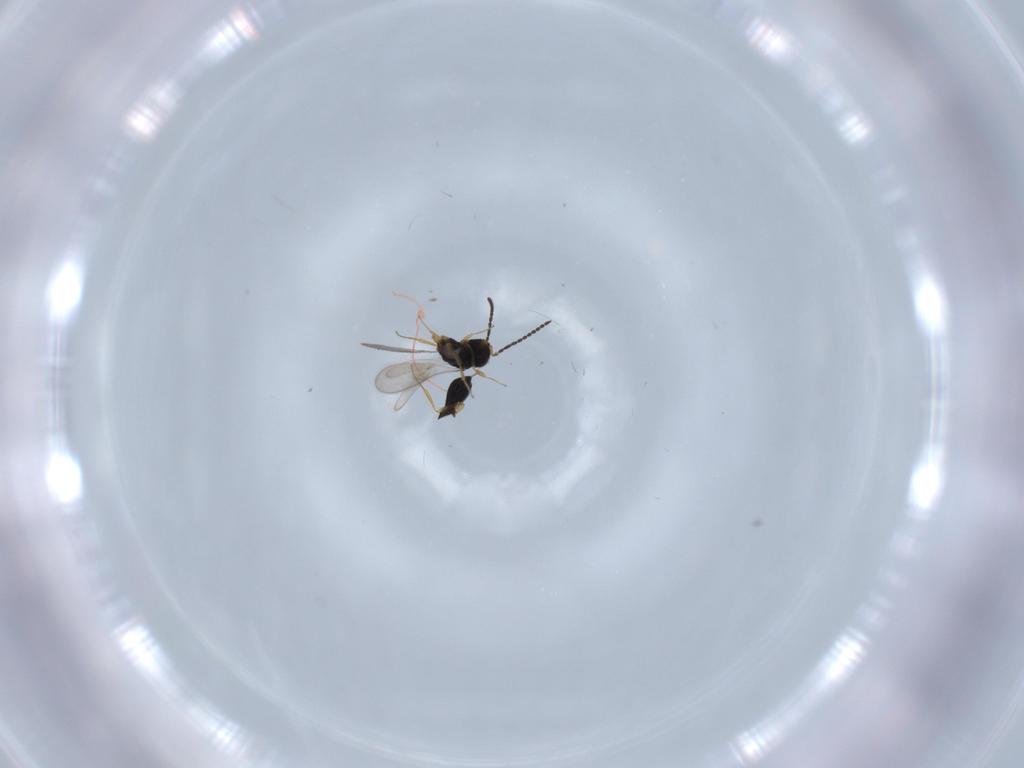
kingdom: Animalia
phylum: Arthropoda
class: Insecta
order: Hymenoptera
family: Scelionidae
